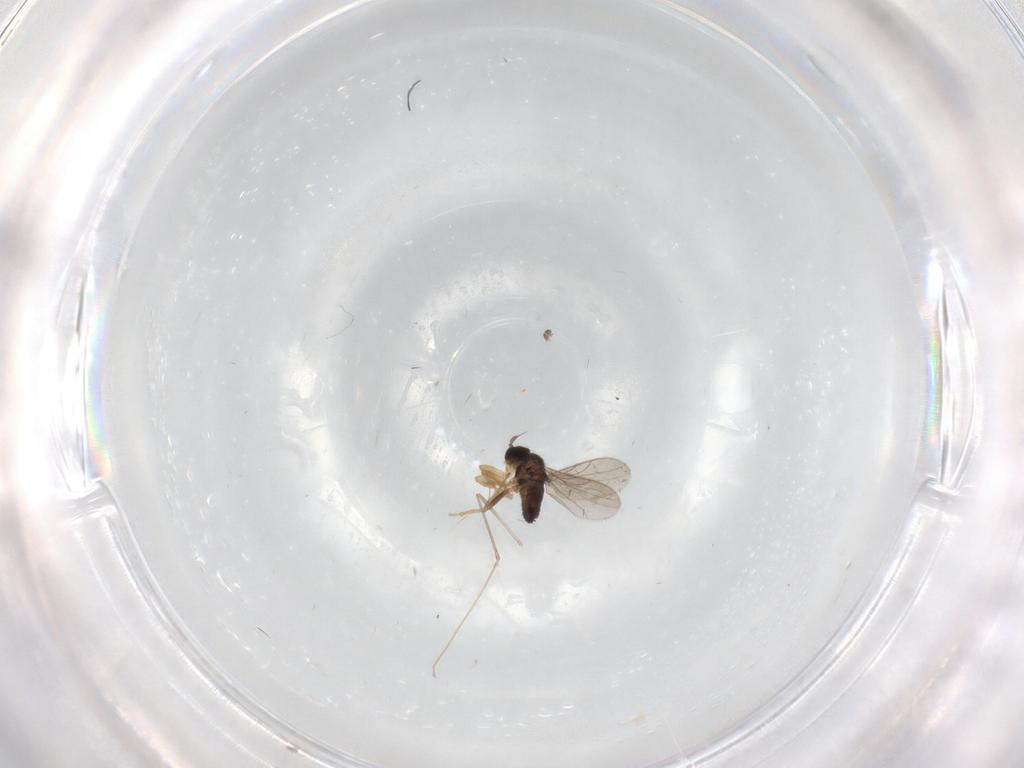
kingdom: Animalia
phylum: Arthropoda
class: Insecta
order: Diptera
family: Hybotidae
